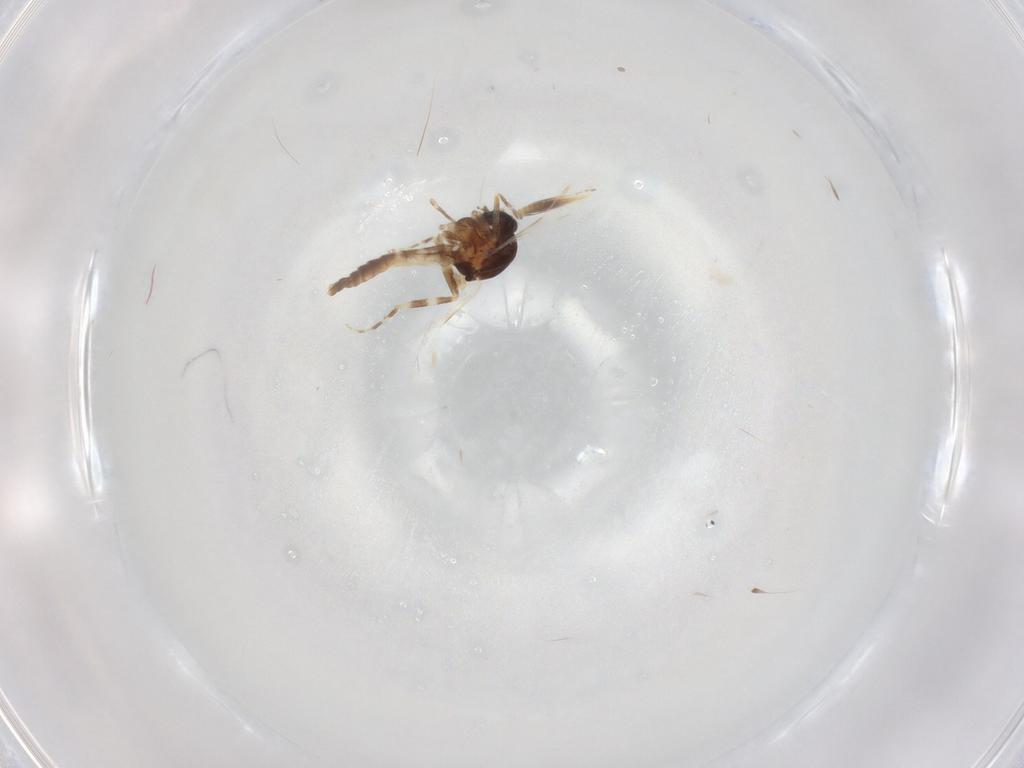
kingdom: Animalia
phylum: Arthropoda
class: Insecta
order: Diptera
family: Ceratopogonidae
